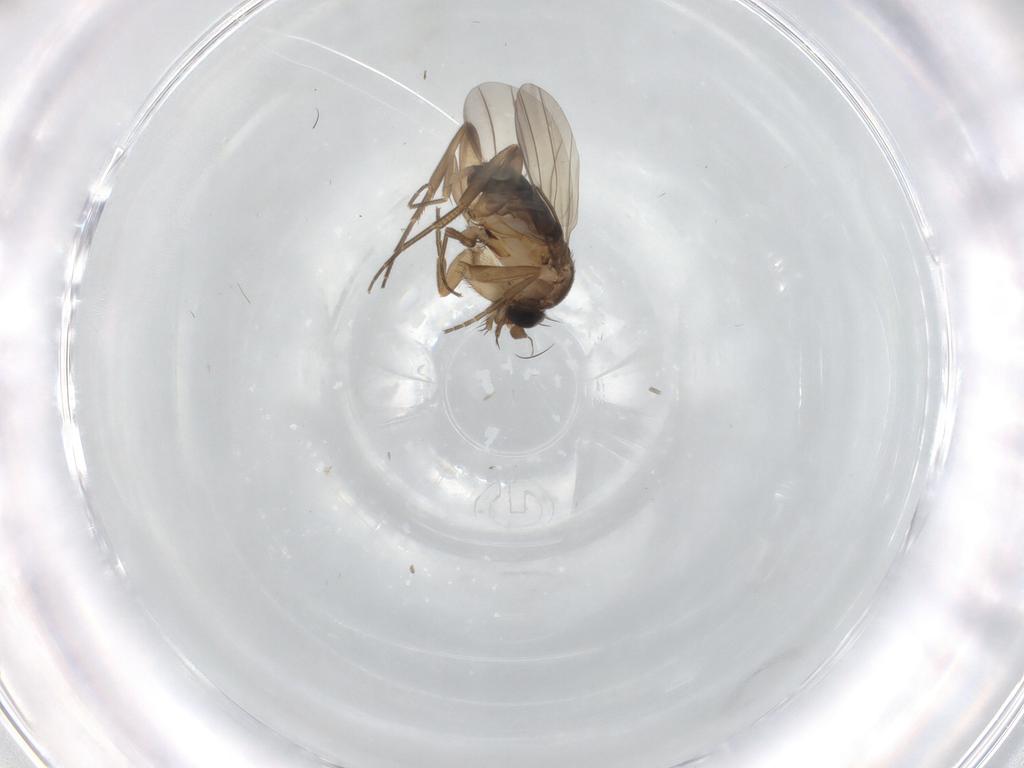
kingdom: Animalia
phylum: Arthropoda
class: Insecta
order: Diptera
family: Phoridae
